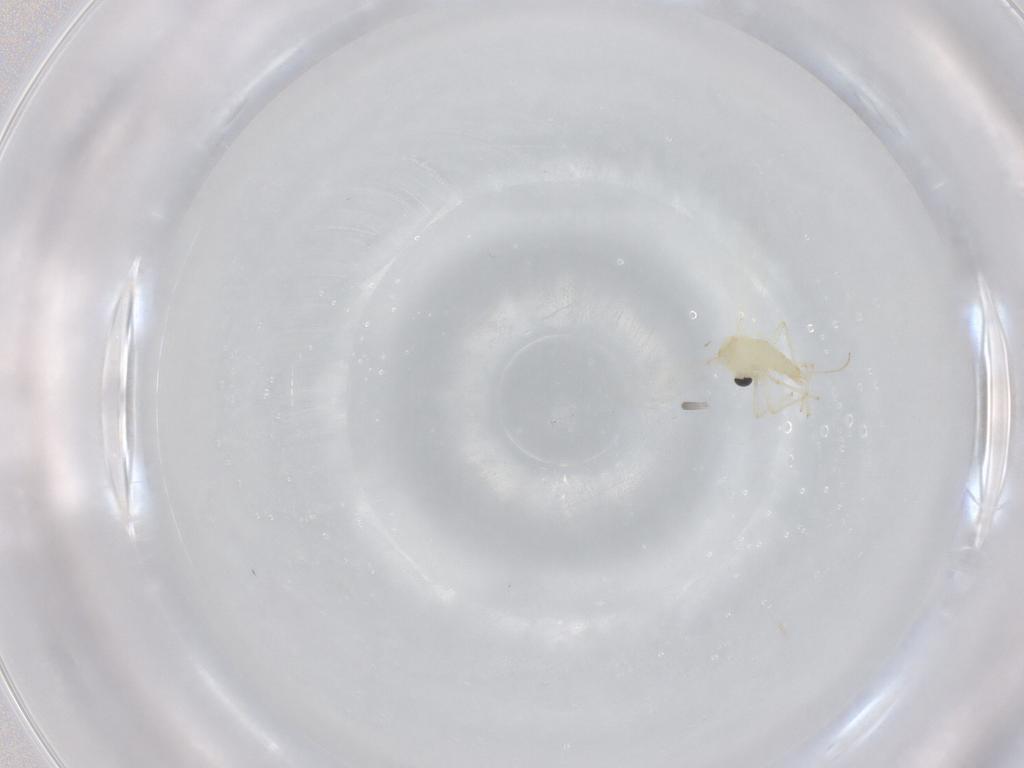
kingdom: Animalia
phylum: Arthropoda
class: Insecta
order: Diptera
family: Chironomidae
